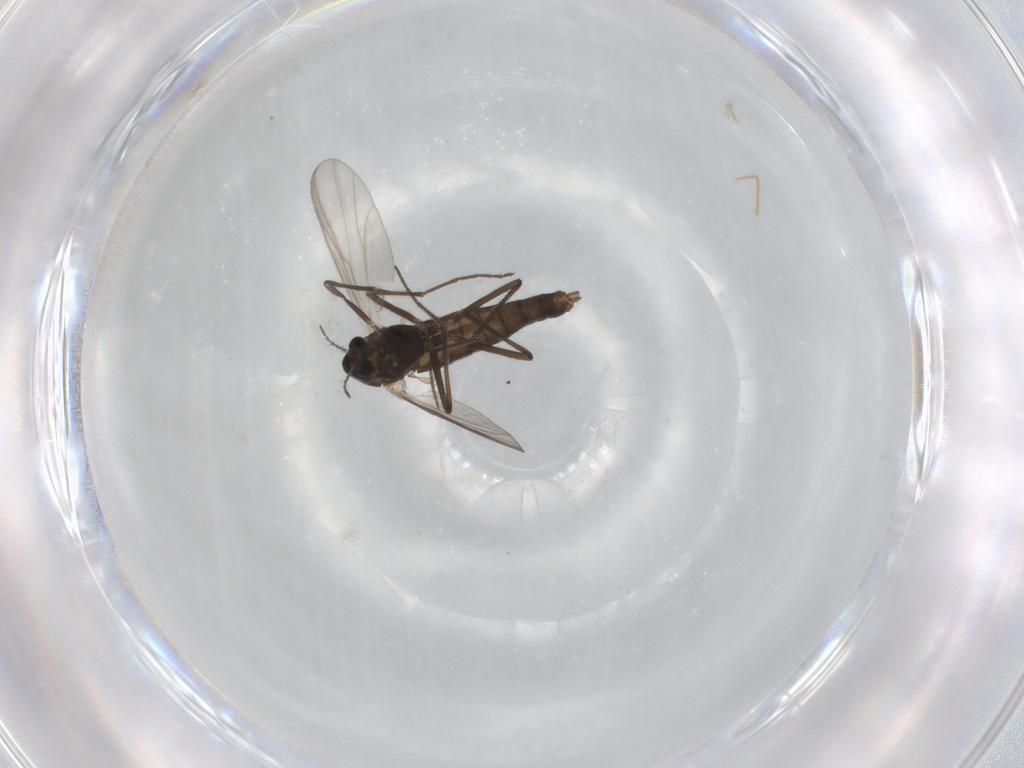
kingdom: Animalia
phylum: Arthropoda
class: Insecta
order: Diptera
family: Chironomidae
